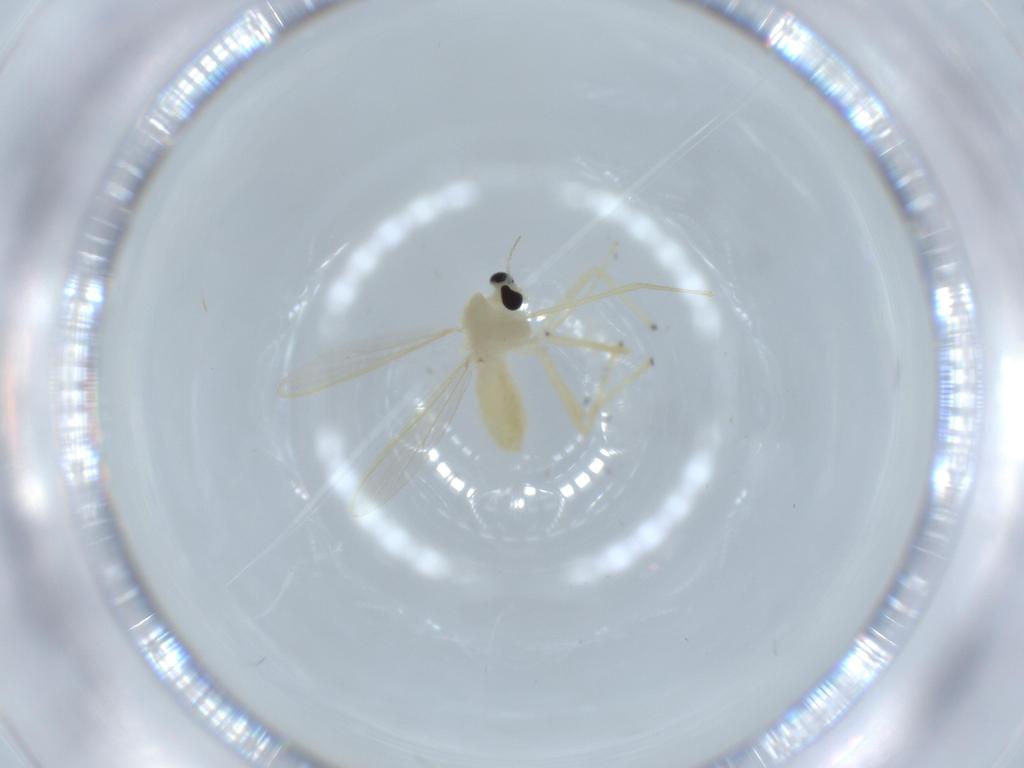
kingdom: Animalia
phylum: Arthropoda
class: Insecta
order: Diptera
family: Chironomidae
